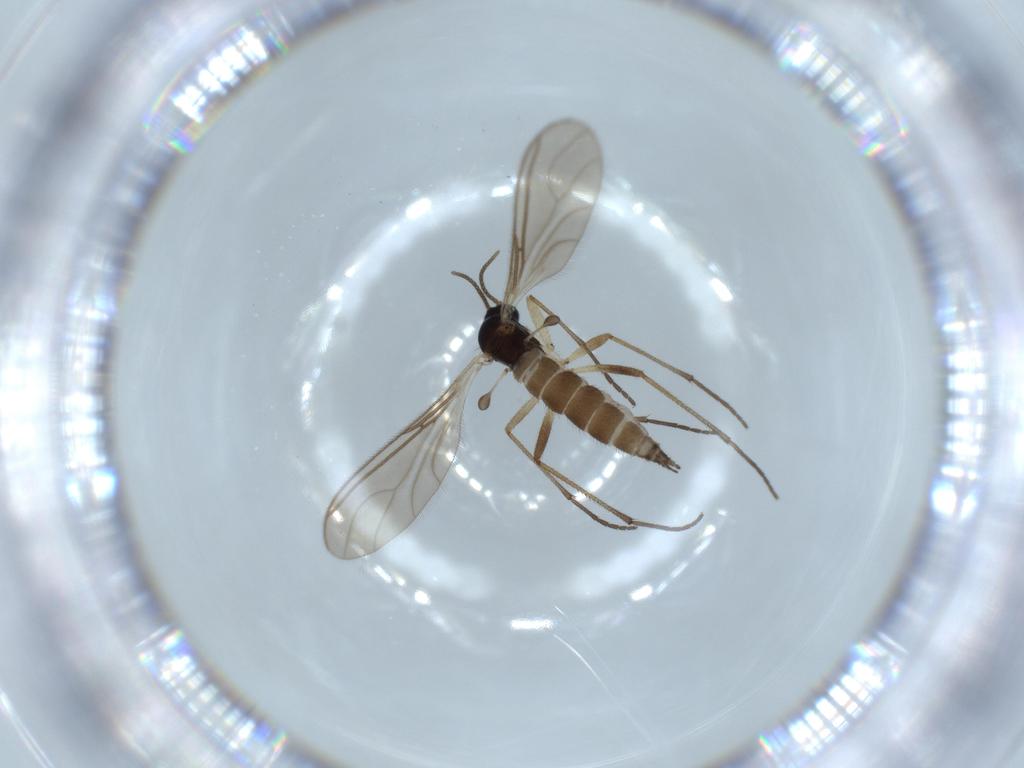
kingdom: Animalia
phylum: Arthropoda
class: Insecta
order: Diptera
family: Sciaridae
